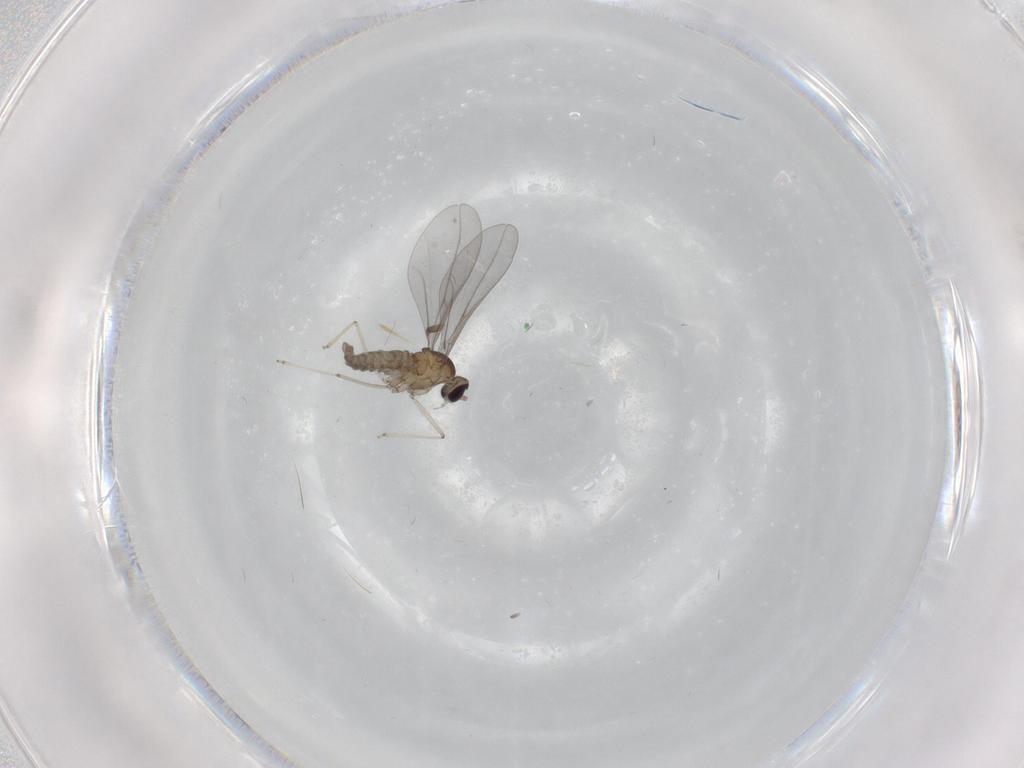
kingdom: Animalia
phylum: Arthropoda
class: Insecta
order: Diptera
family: Cecidomyiidae
